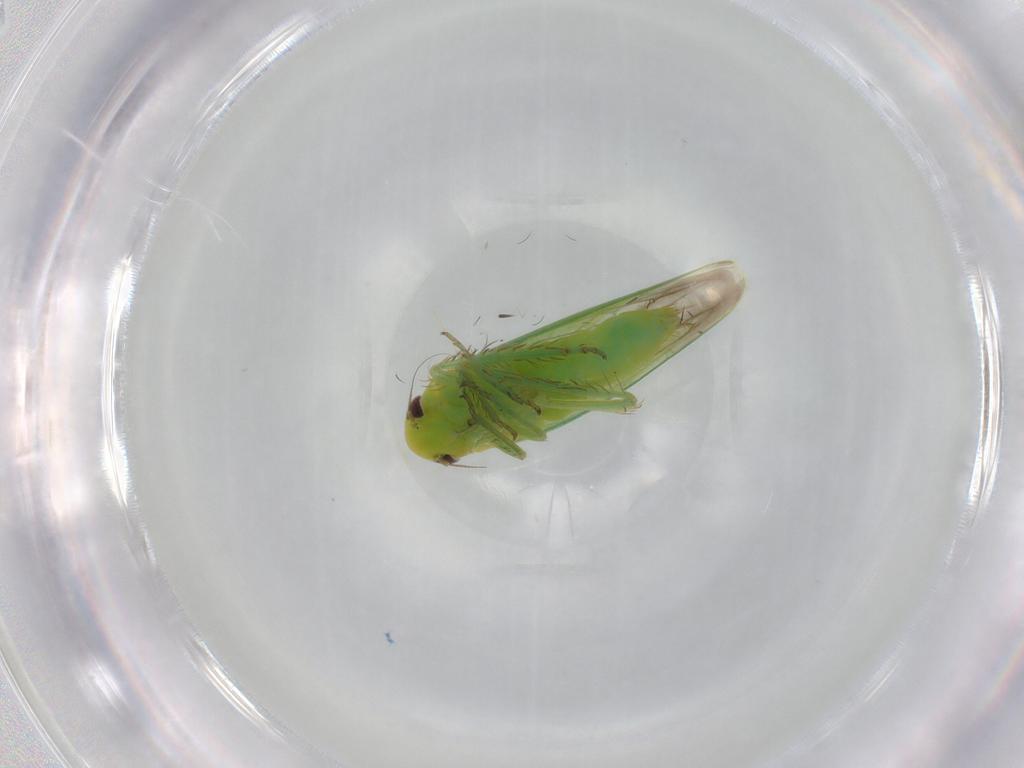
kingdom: Animalia
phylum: Arthropoda
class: Insecta
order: Hemiptera
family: Cicadellidae
